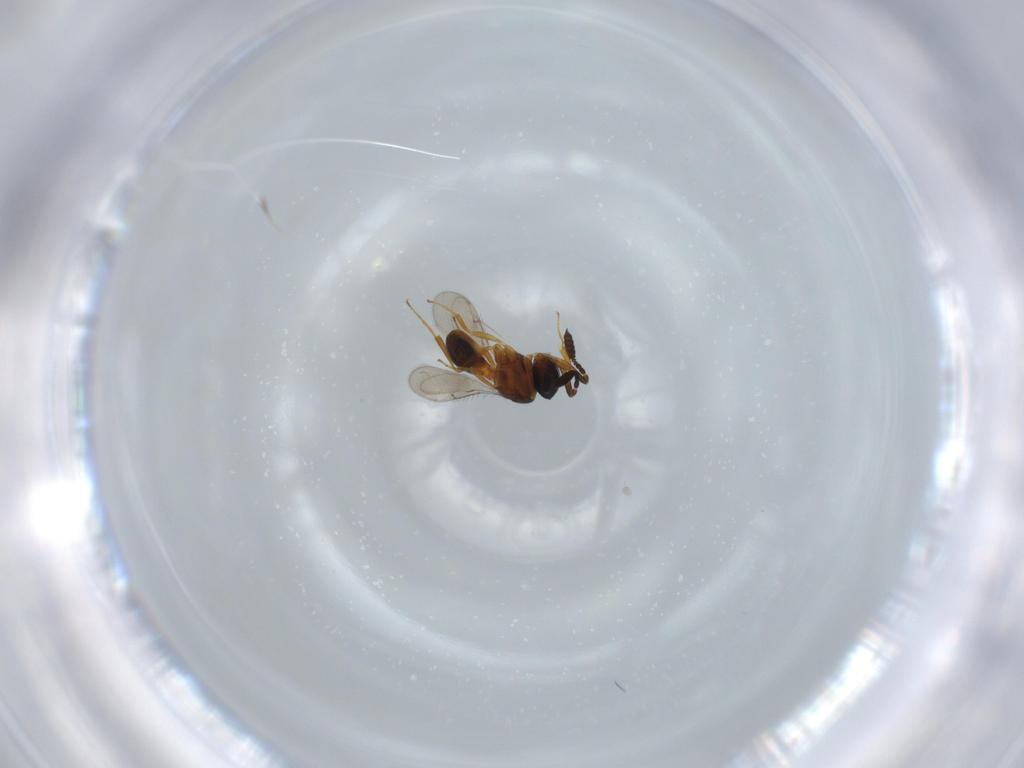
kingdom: Animalia
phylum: Arthropoda
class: Insecta
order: Hymenoptera
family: Scelionidae
